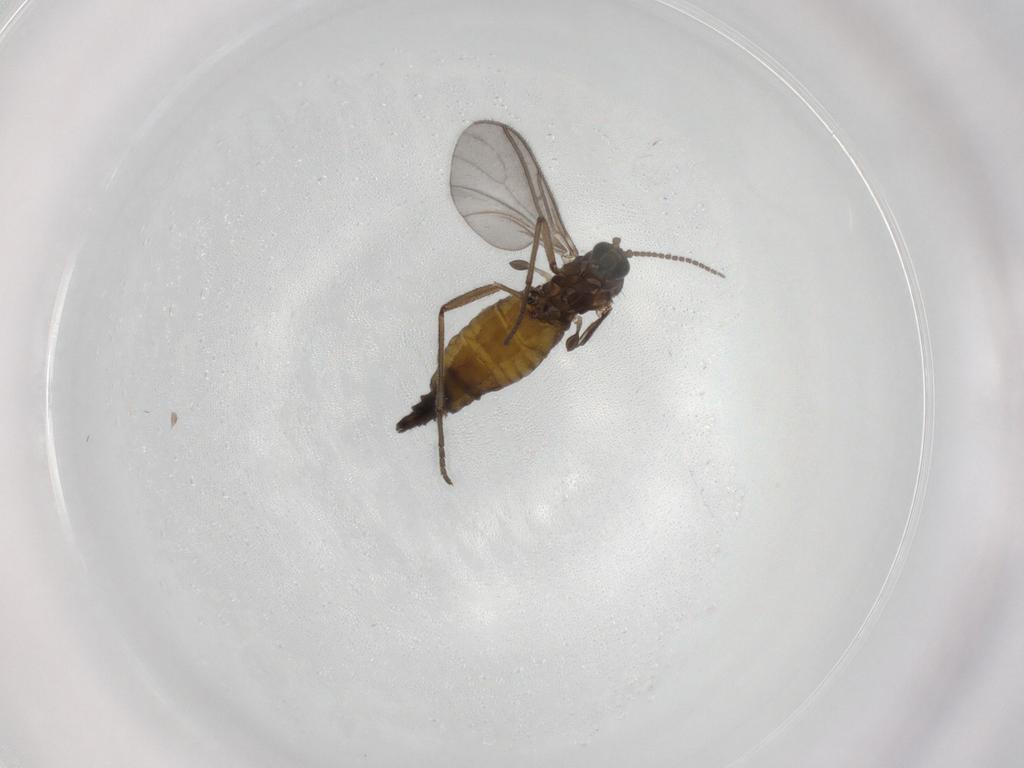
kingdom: Animalia
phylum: Arthropoda
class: Insecta
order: Diptera
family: Sciaridae
